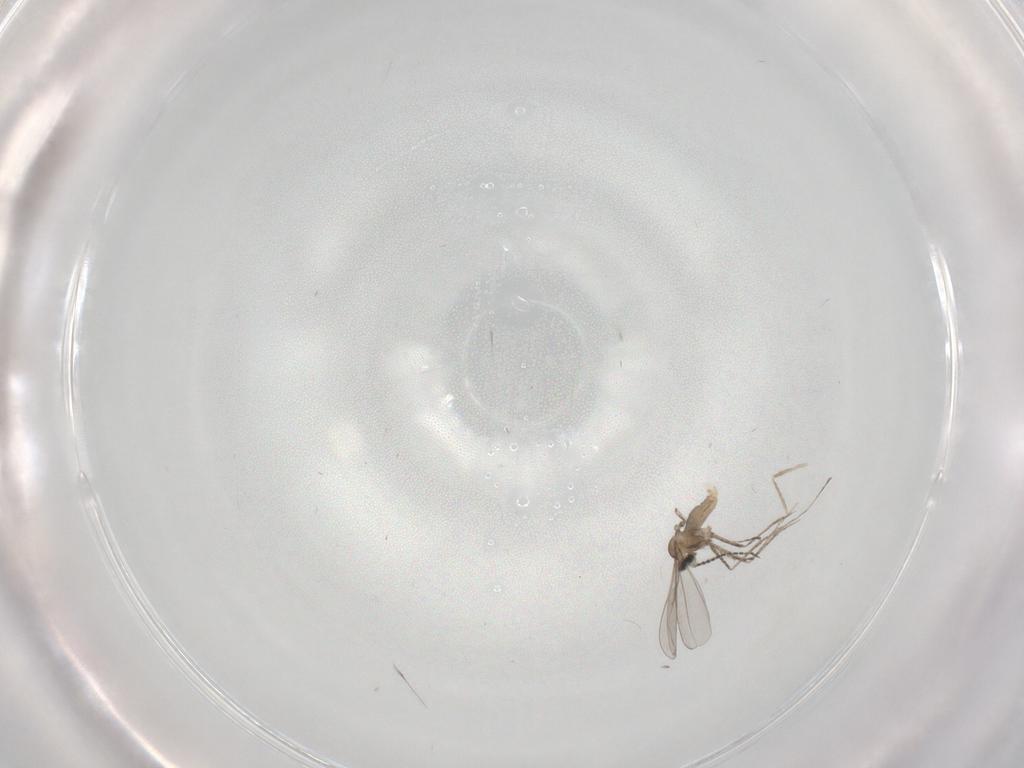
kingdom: Animalia
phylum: Arthropoda
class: Insecta
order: Diptera
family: Cecidomyiidae
